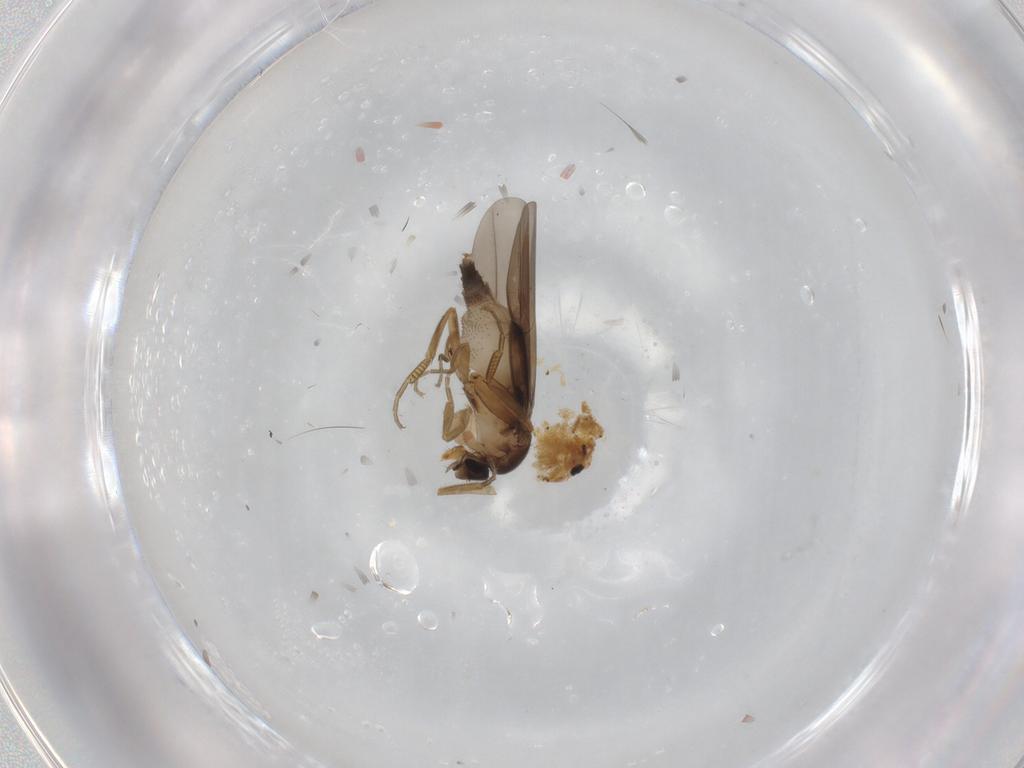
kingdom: Animalia
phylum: Arthropoda
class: Insecta
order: Diptera
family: Phoridae
